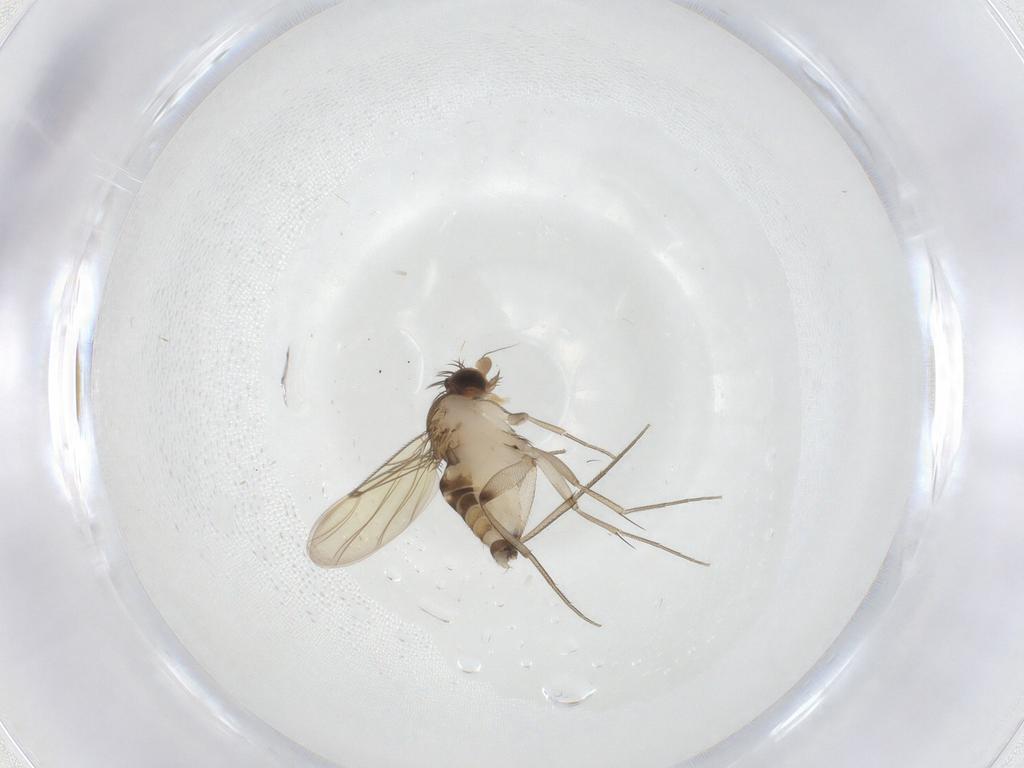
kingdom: Animalia
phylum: Arthropoda
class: Insecta
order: Diptera
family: Phoridae
